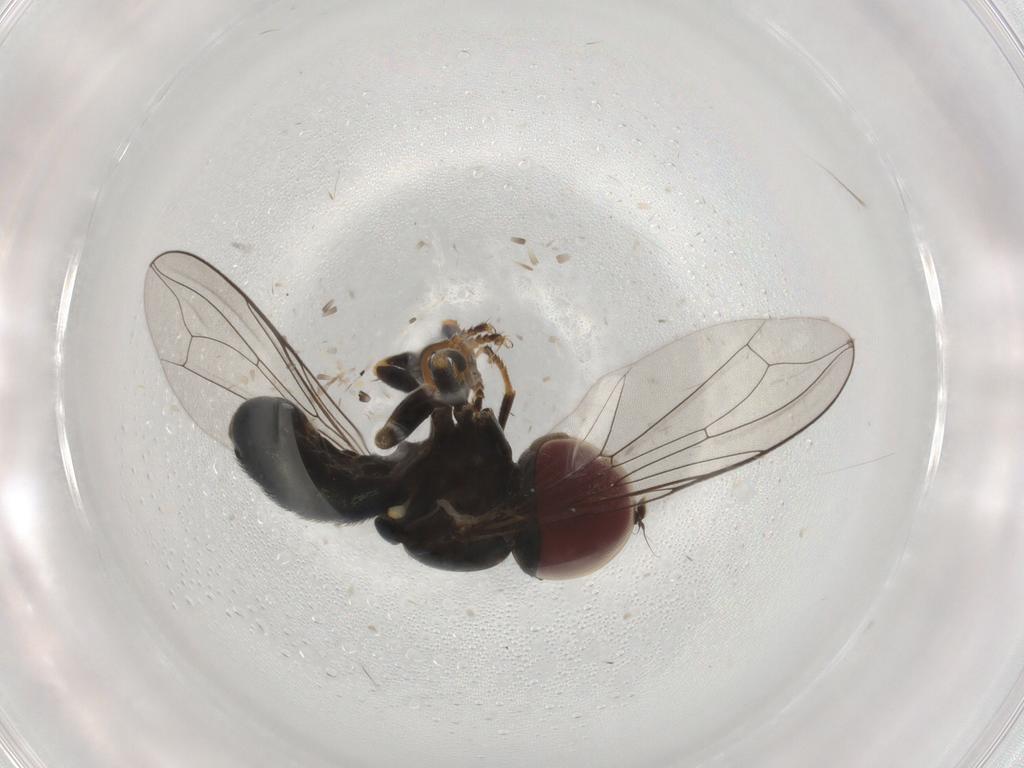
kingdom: Animalia
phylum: Arthropoda
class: Insecta
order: Diptera
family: Pipunculidae
